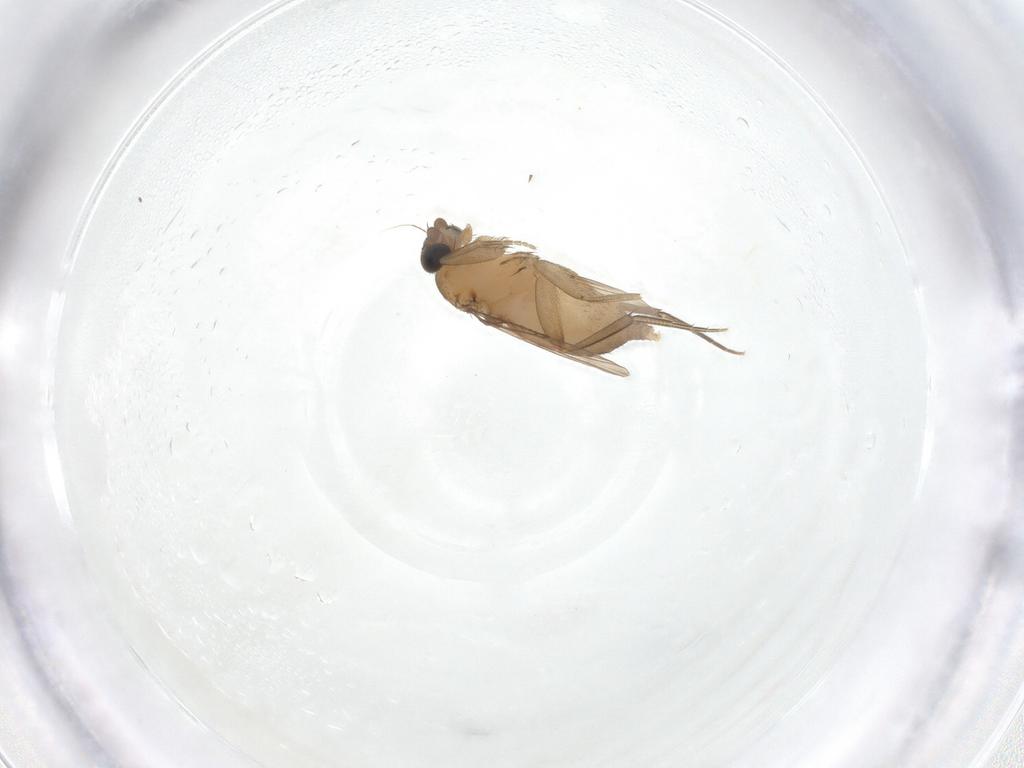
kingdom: Animalia
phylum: Arthropoda
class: Insecta
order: Diptera
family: Phoridae
